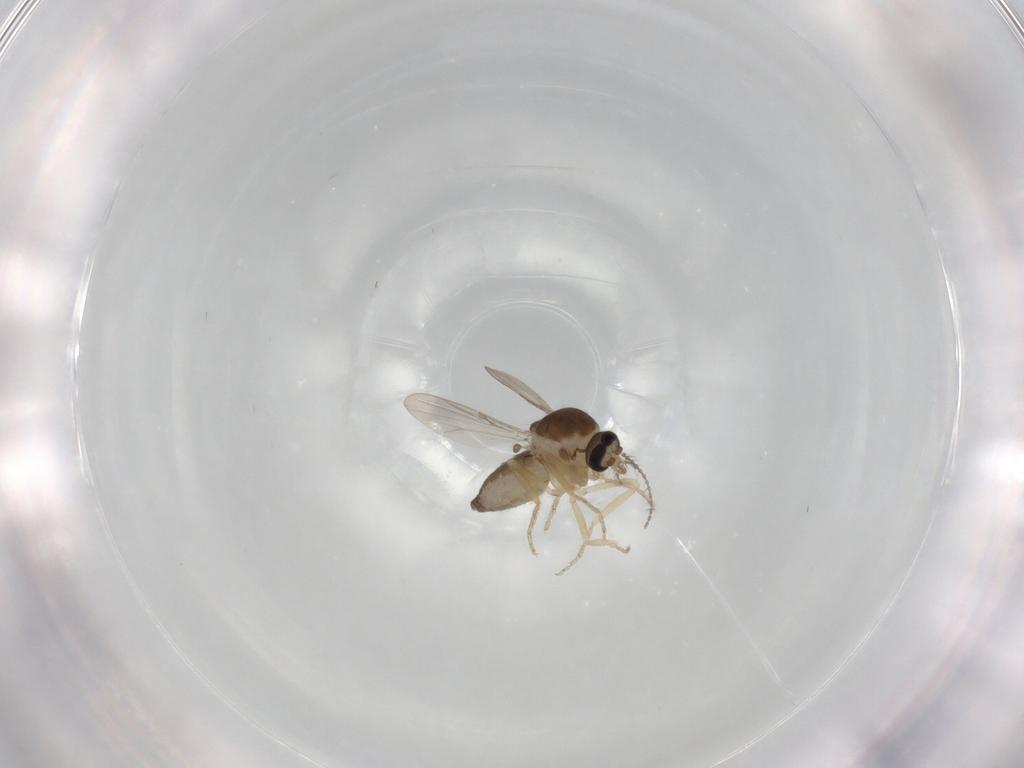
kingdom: Animalia
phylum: Arthropoda
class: Insecta
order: Diptera
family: Ceratopogonidae
